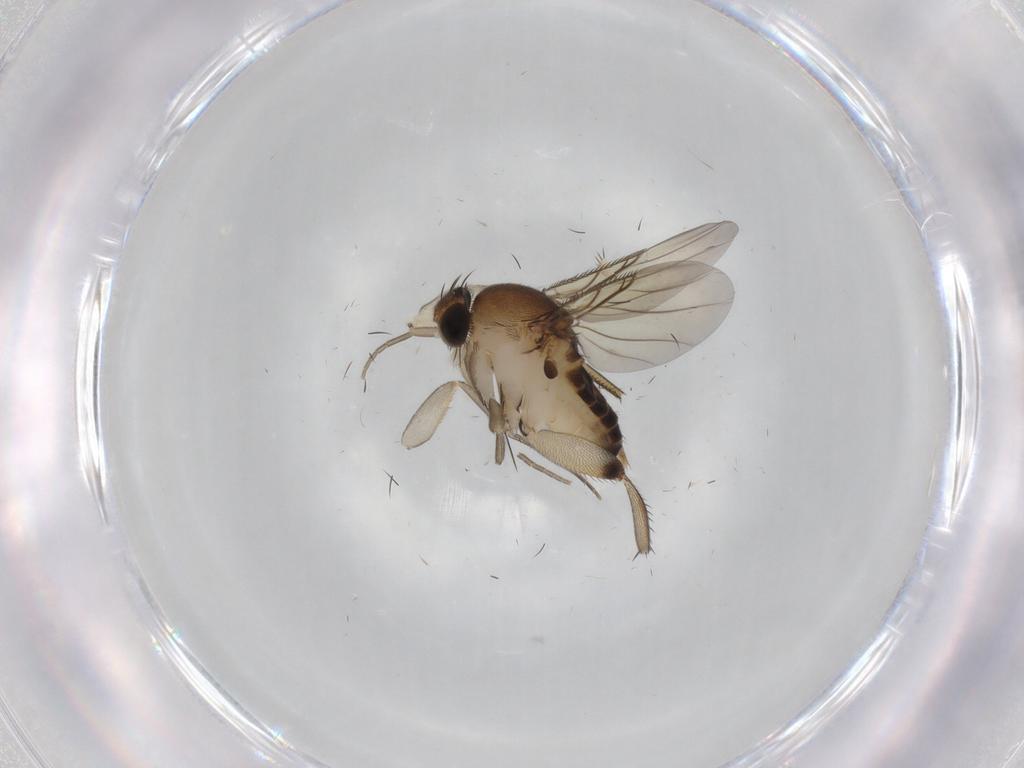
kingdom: Animalia
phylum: Arthropoda
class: Insecta
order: Diptera
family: Phoridae
